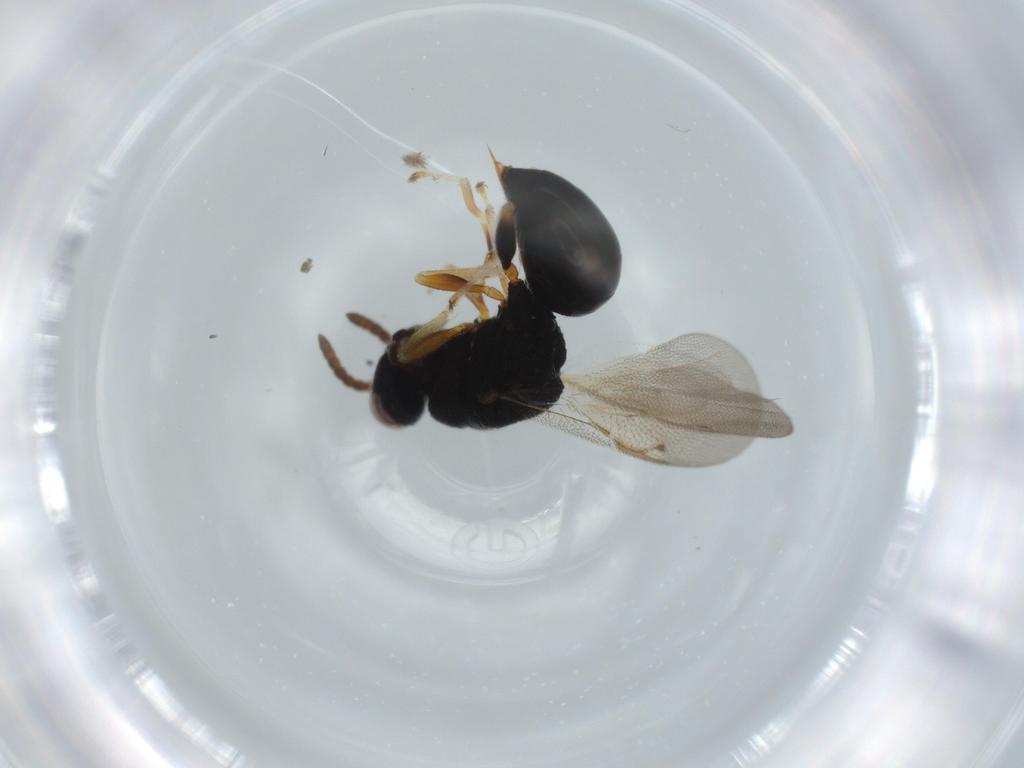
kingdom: Animalia
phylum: Arthropoda
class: Insecta
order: Hymenoptera
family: Bethylidae
